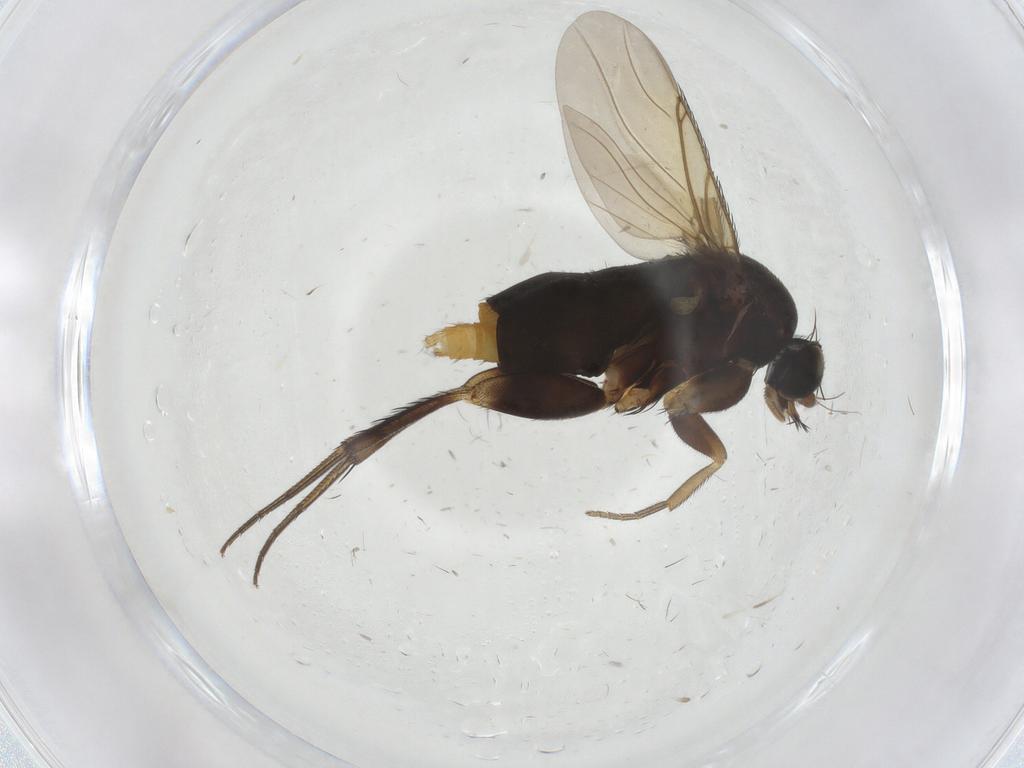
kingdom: Animalia
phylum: Arthropoda
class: Insecta
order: Diptera
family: Phoridae
